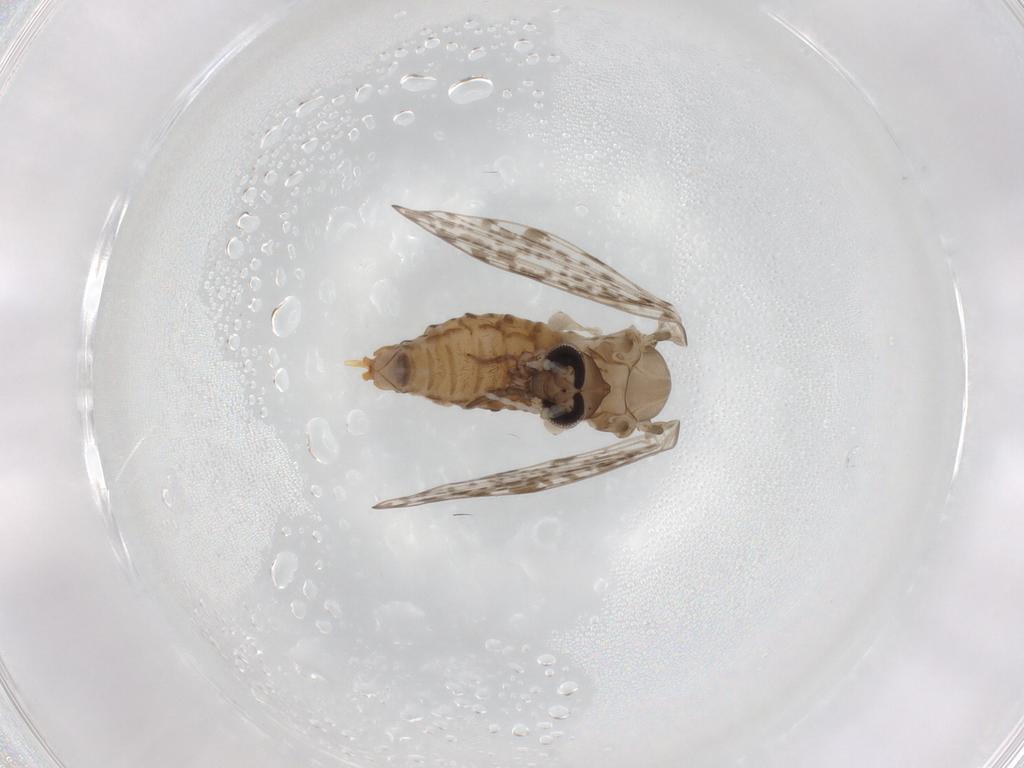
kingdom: Animalia
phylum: Arthropoda
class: Insecta
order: Diptera
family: Psychodidae
